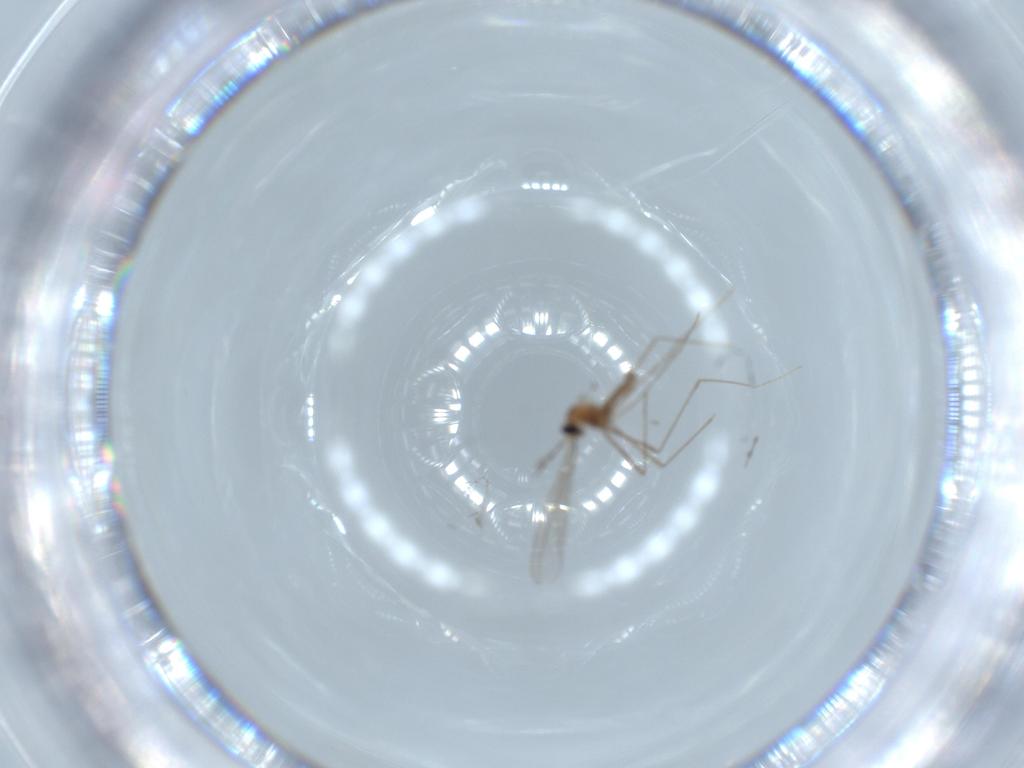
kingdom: Animalia
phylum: Arthropoda
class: Insecta
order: Diptera
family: Cecidomyiidae
